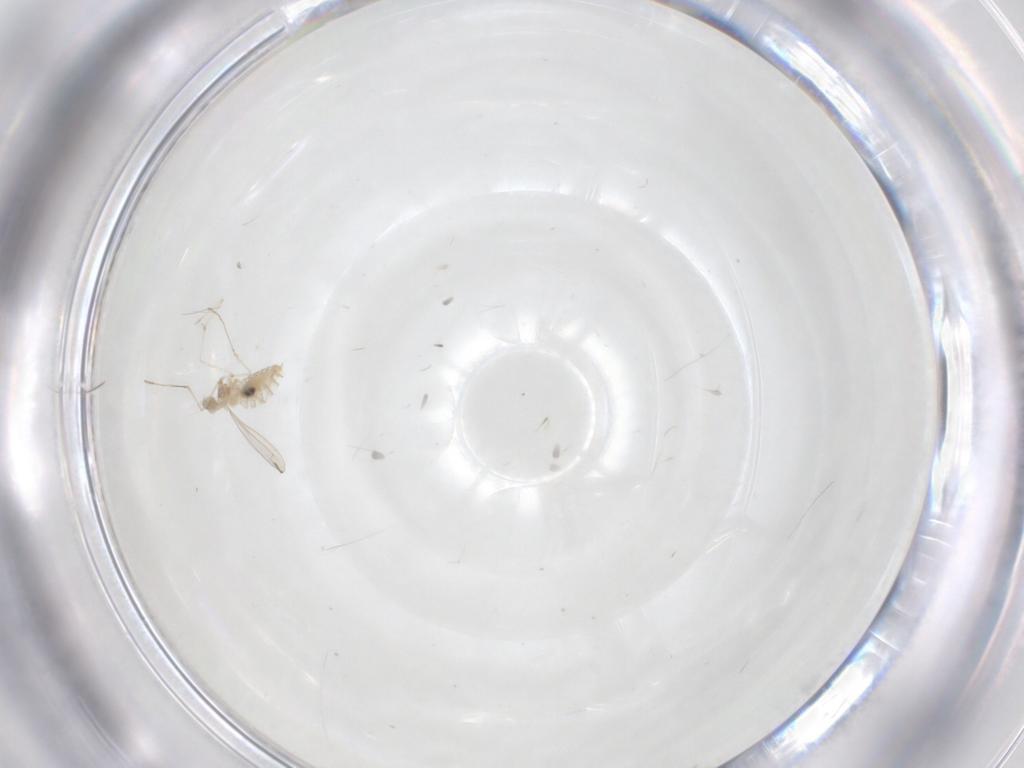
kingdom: Animalia
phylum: Arthropoda
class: Insecta
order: Diptera
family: Cecidomyiidae
